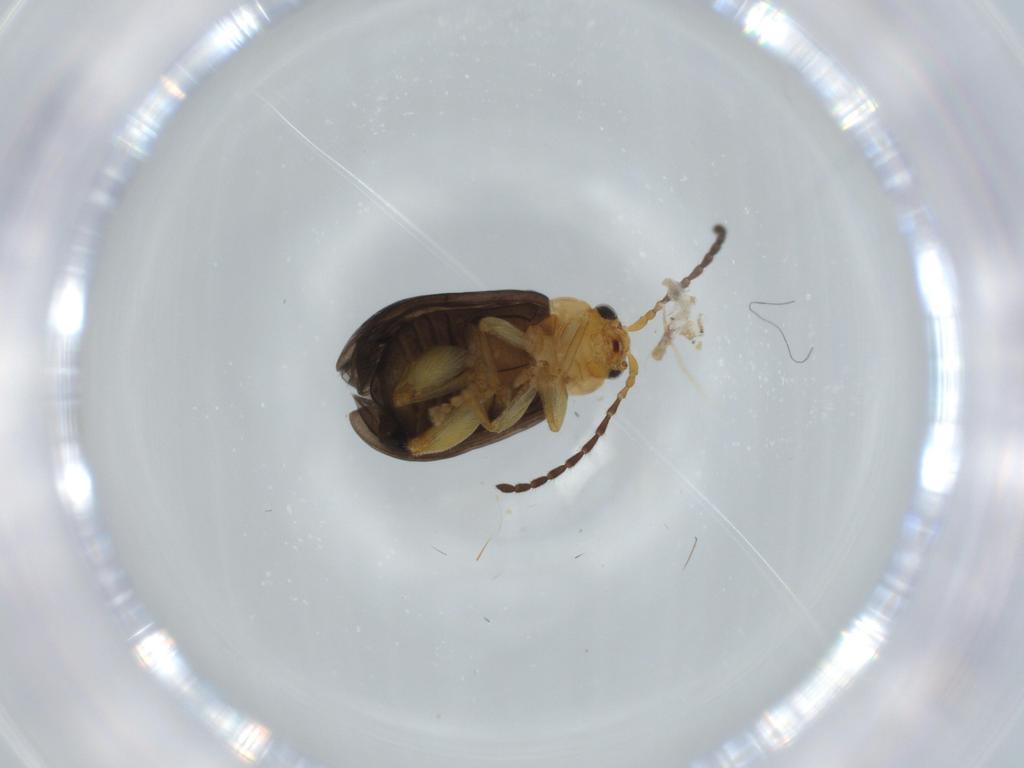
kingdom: Animalia
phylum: Arthropoda
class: Insecta
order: Coleoptera
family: Chrysomelidae
